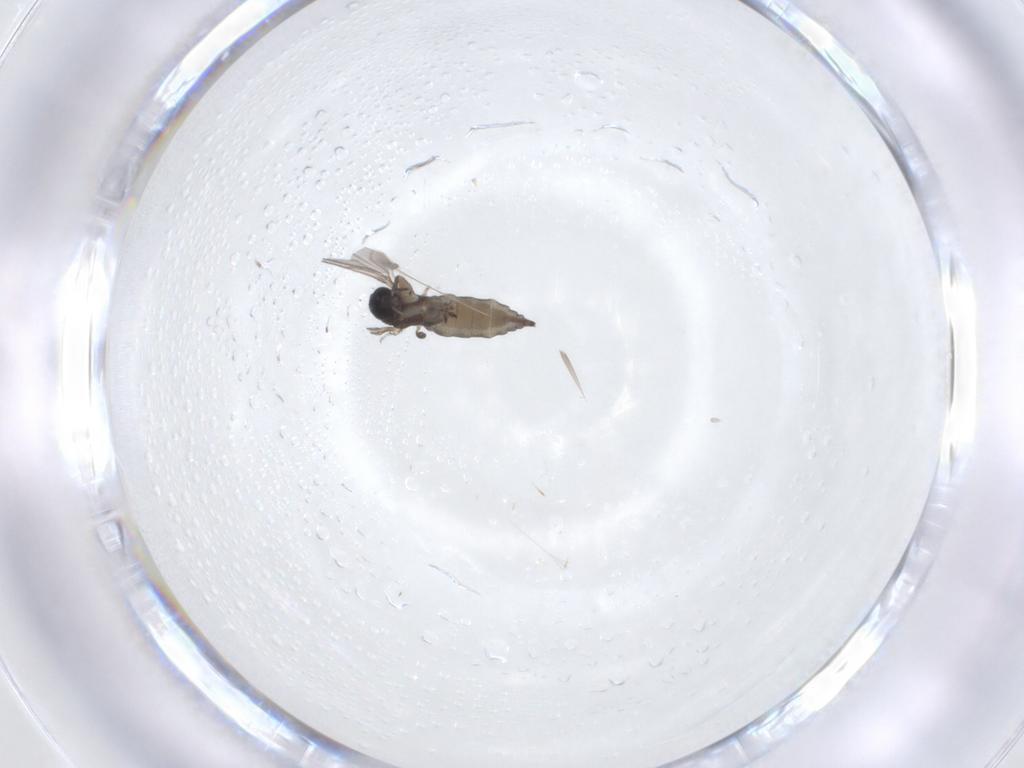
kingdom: Animalia
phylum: Arthropoda
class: Insecta
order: Diptera
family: Sciaridae
